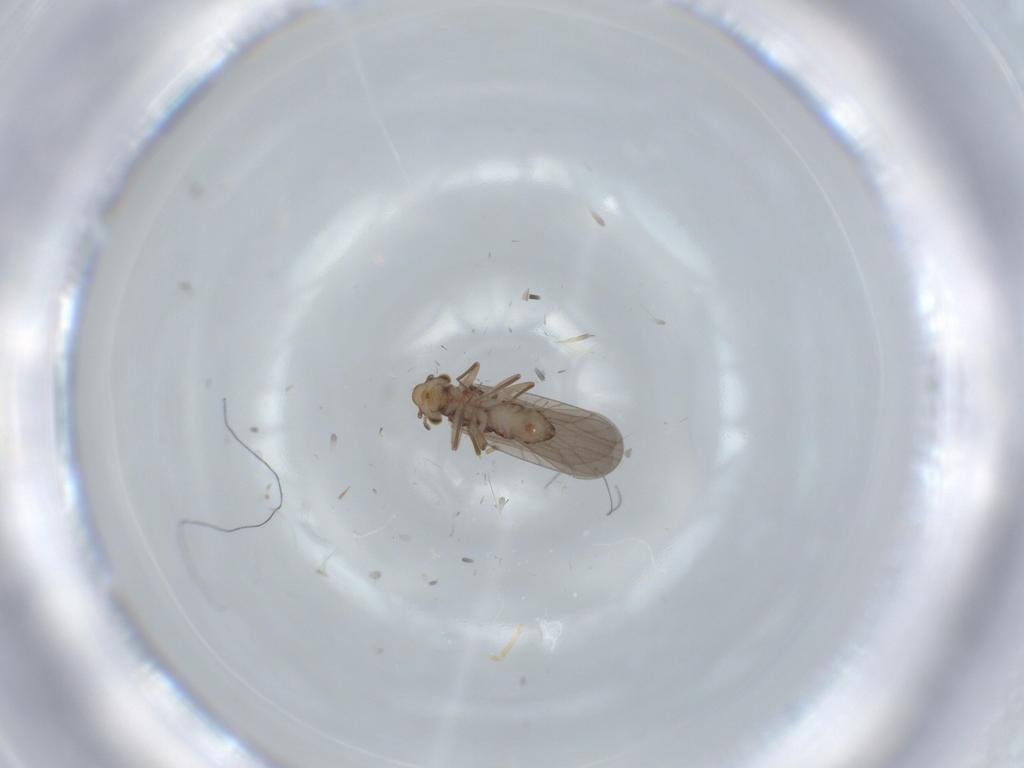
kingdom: Animalia
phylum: Arthropoda
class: Insecta
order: Psocodea
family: Lepidopsocidae
